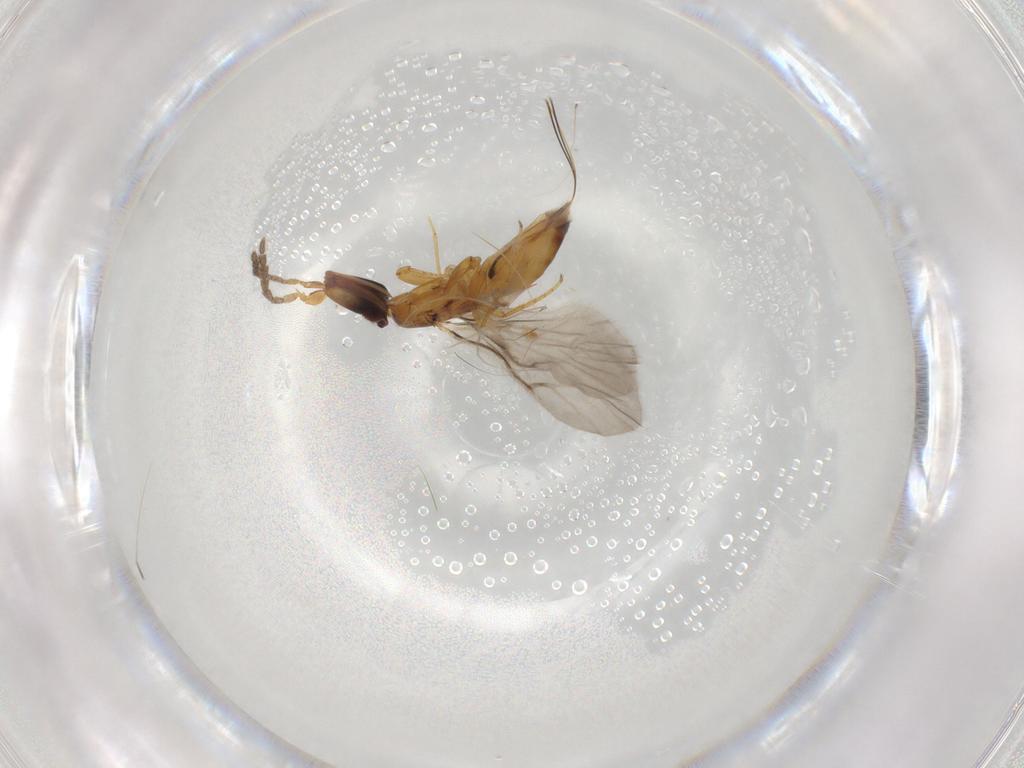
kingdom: Animalia
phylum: Arthropoda
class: Insecta
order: Hymenoptera
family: Agaonidae
